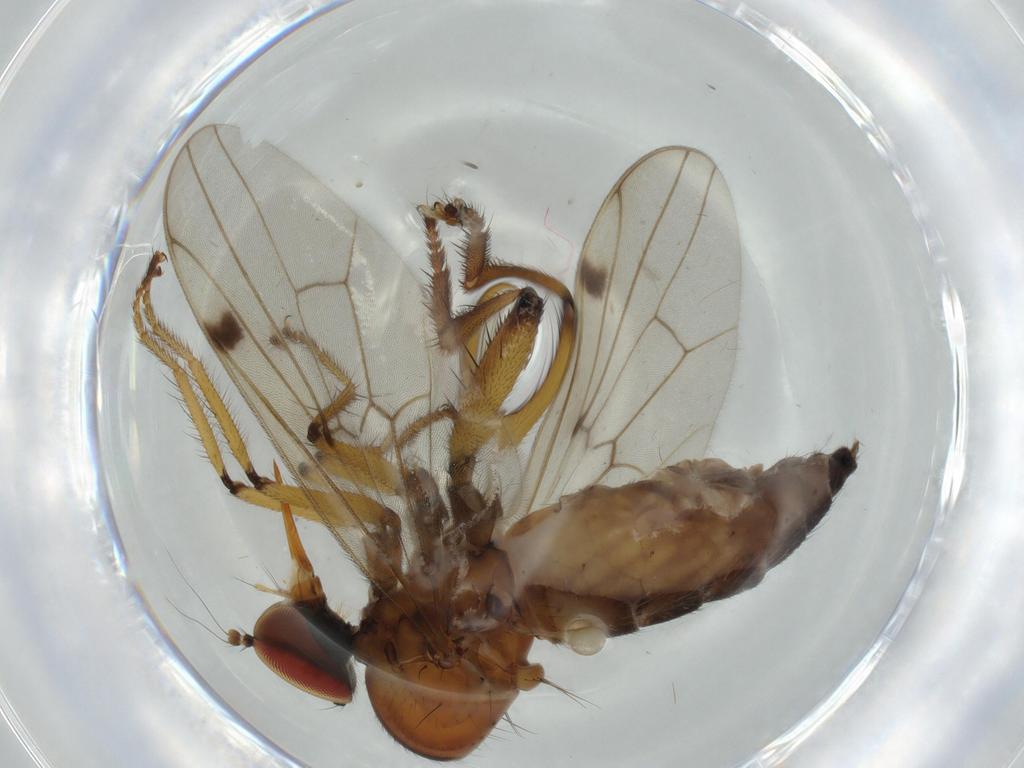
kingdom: Animalia
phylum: Arthropoda
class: Insecta
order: Diptera
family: Hybotidae
